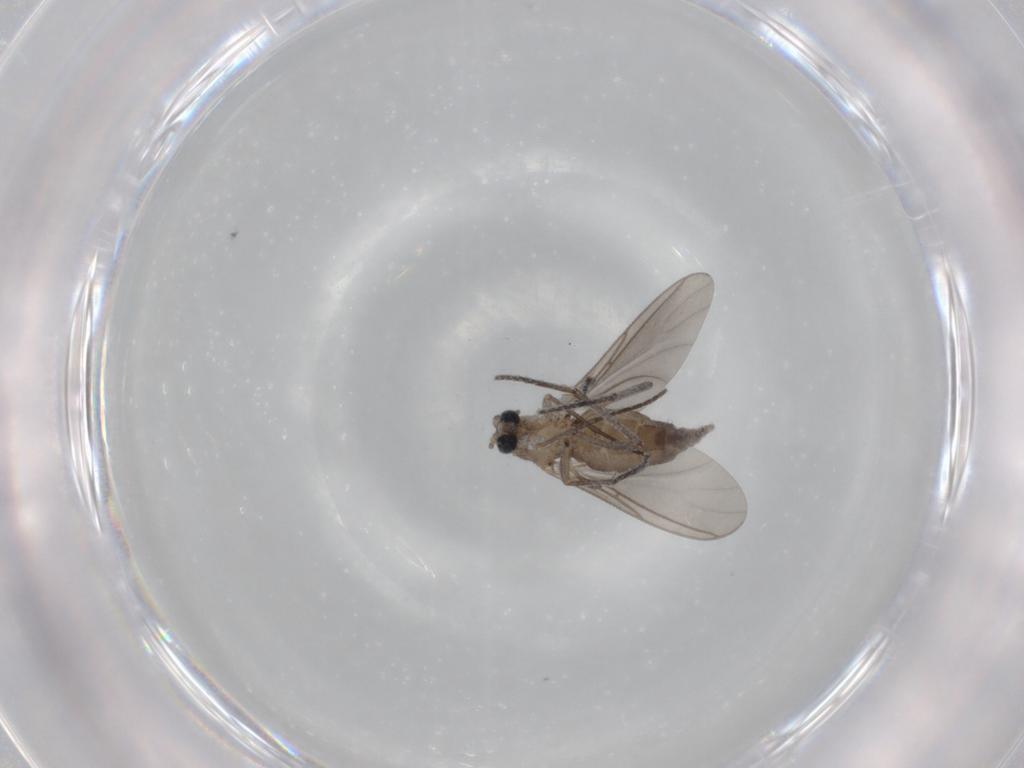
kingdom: Animalia
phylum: Arthropoda
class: Insecta
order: Diptera
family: Sciaridae
